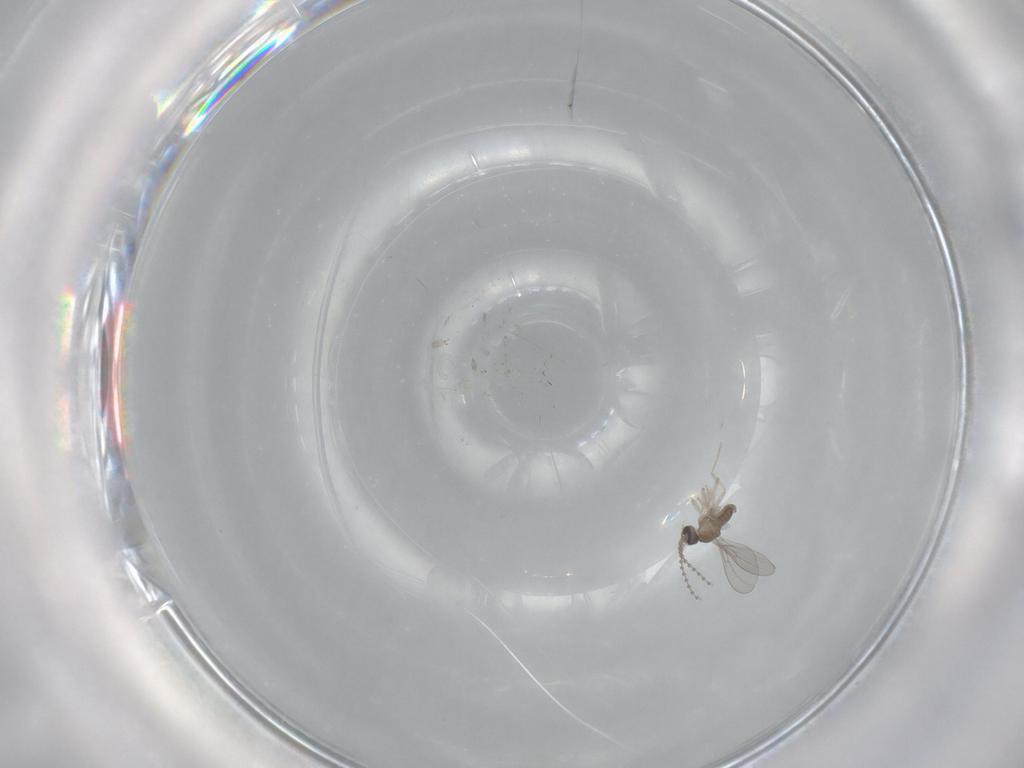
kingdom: Animalia
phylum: Arthropoda
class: Insecta
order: Diptera
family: Cecidomyiidae
